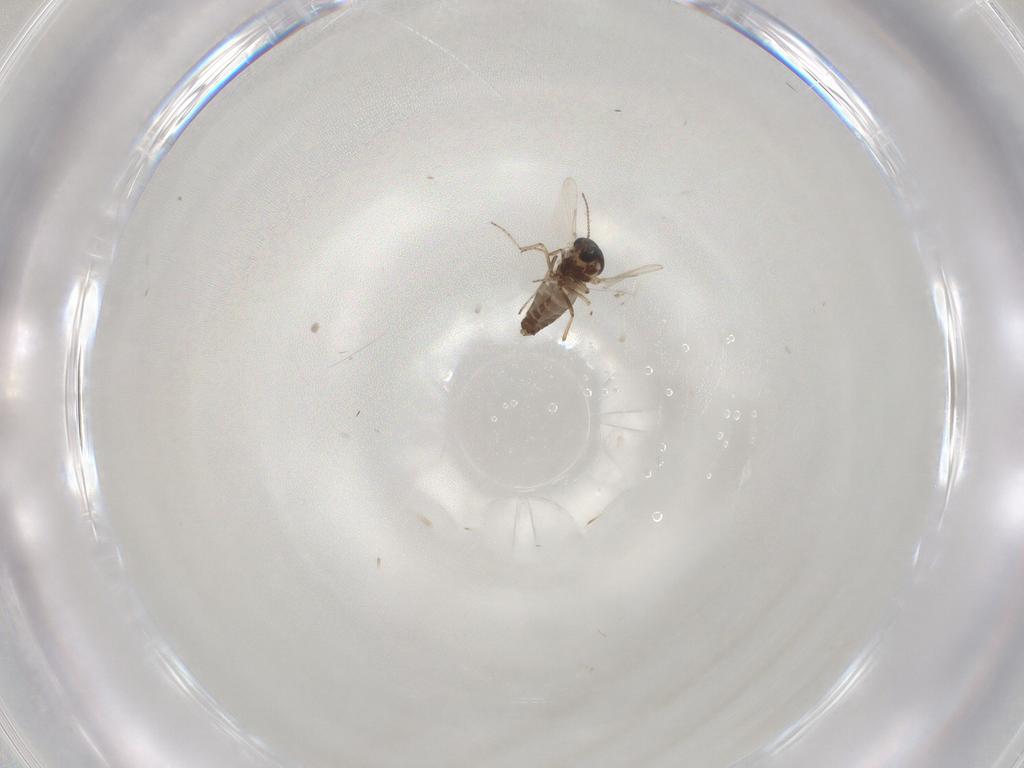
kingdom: Animalia
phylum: Arthropoda
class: Insecta
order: Diptera
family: Ceratopogonidae
